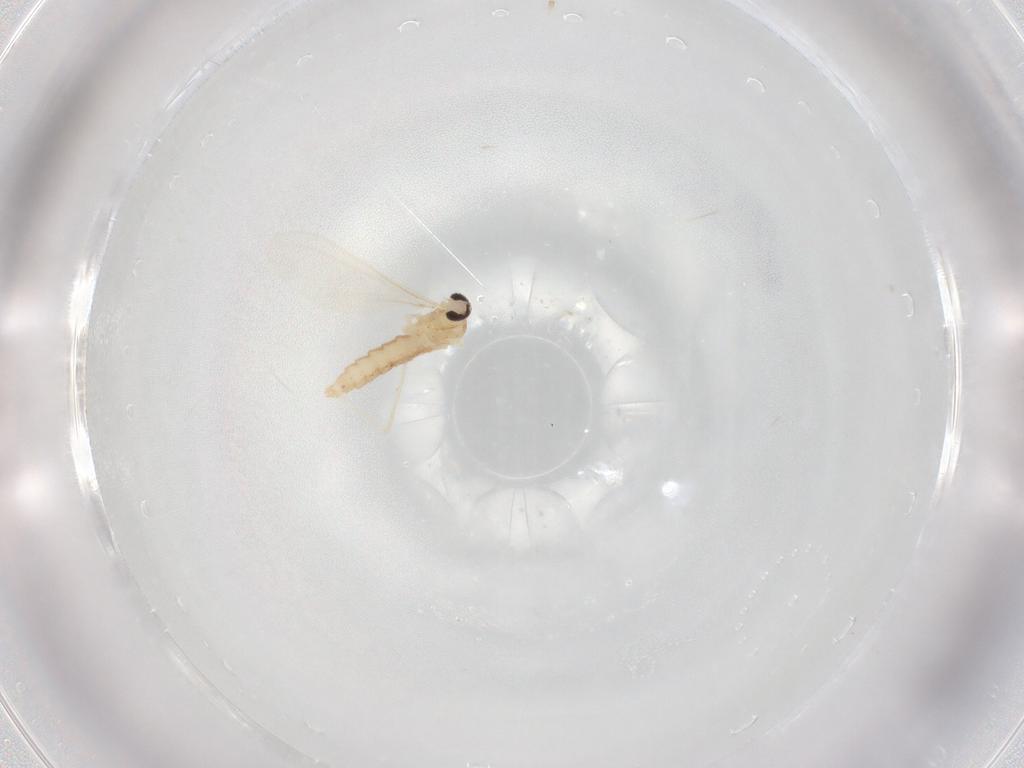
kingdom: Animalia
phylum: Arthropoda
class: Insecta
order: Diptera
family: Cecidomyiidae
